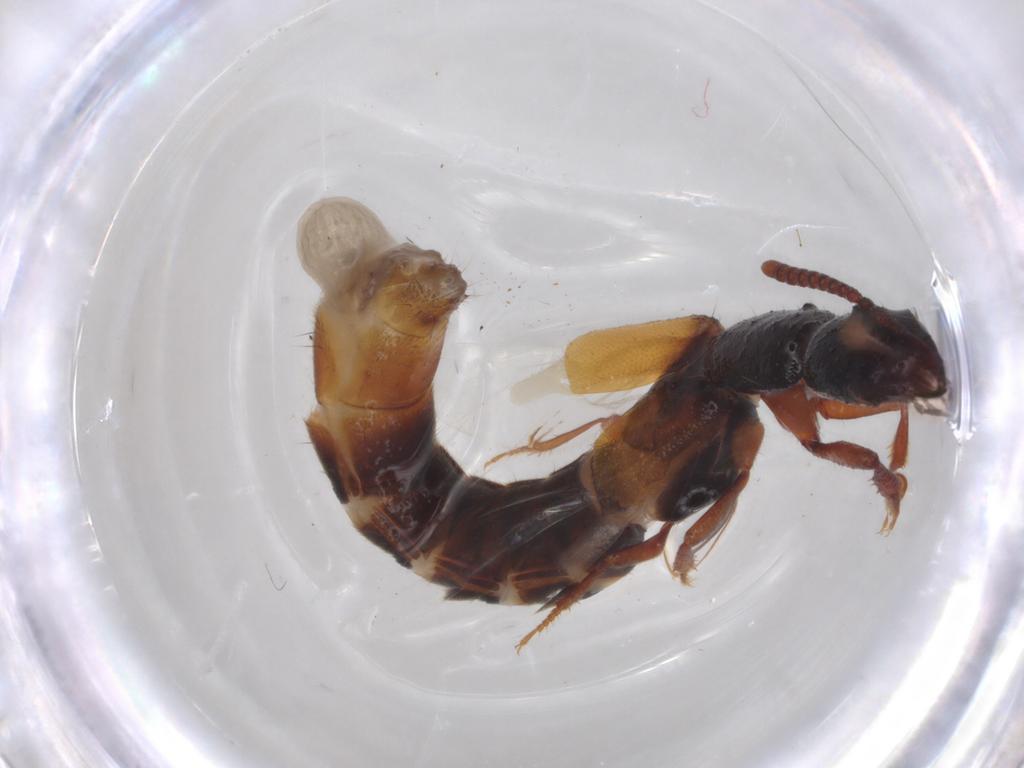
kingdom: Animalia
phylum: Arthropoda
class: Insecta
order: Coleoptera
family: Staphylinidae
